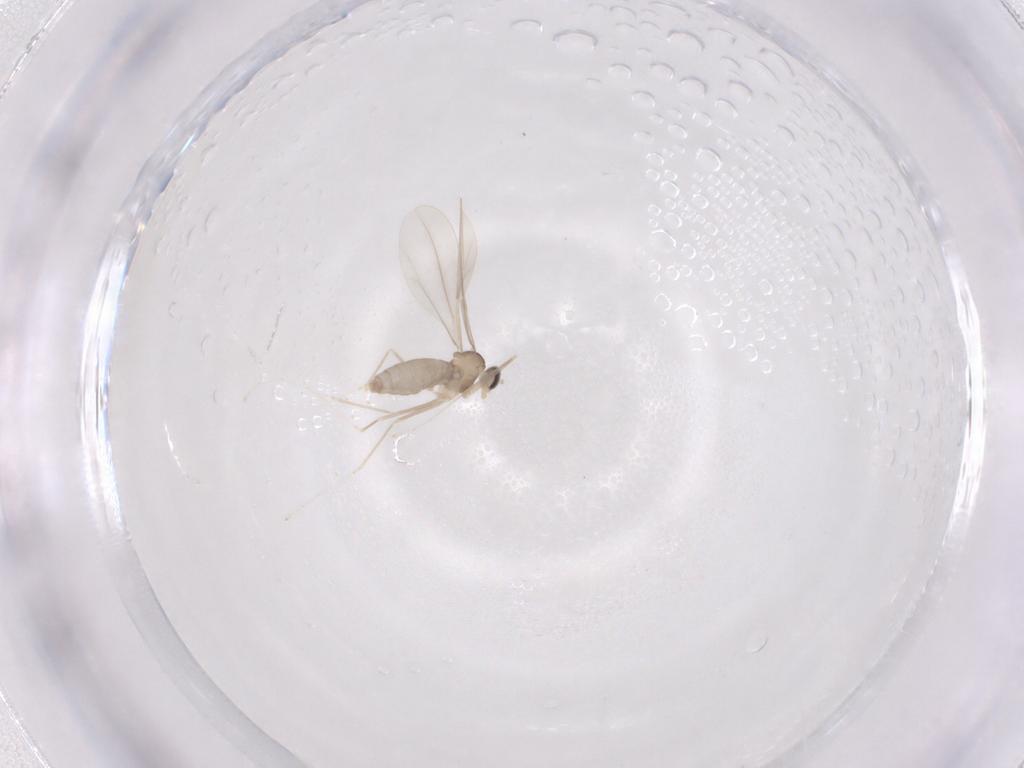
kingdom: Animalia
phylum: Arthropoda
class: Insecta
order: Diptera
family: Cecidomyiidae
